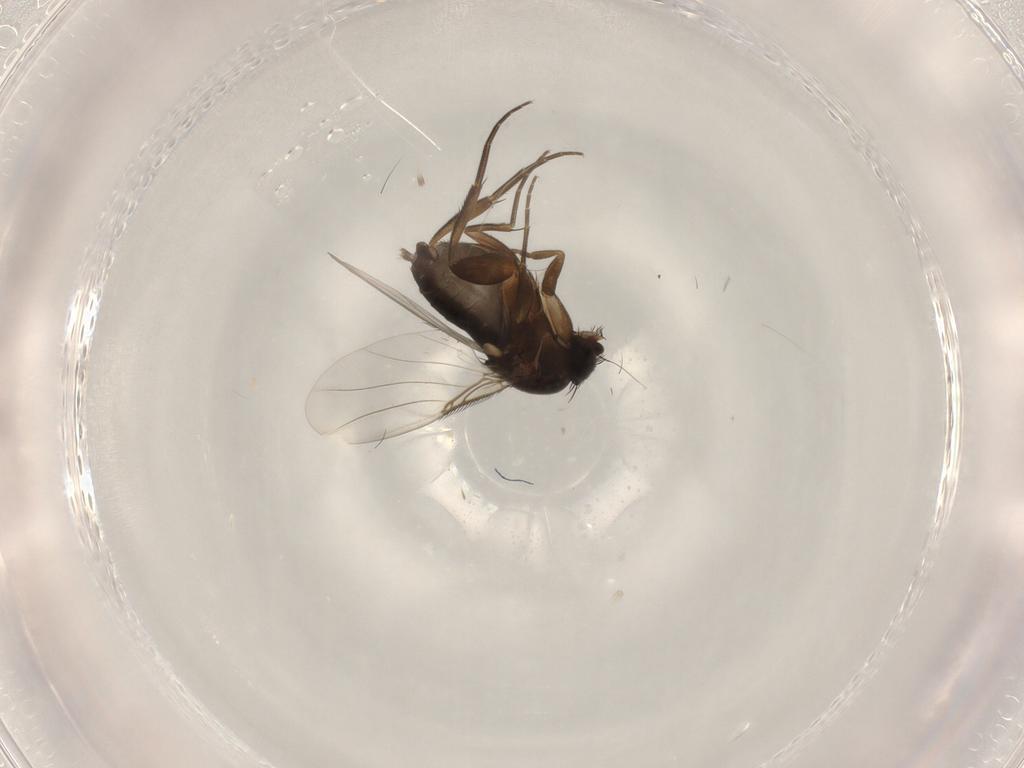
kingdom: Animalia
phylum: Arthropoda
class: Insecta
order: Diptera
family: Phoridae
